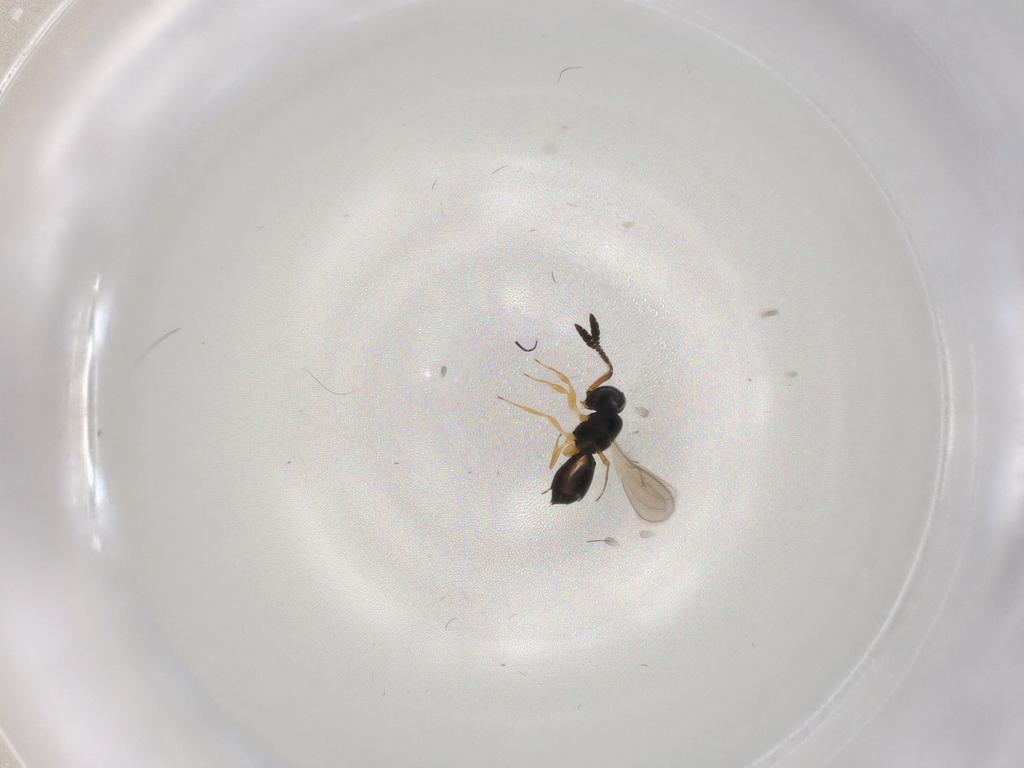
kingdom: Animalia
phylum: Arthropoda
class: Insecta
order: Hymenoptera
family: Scelionidae
